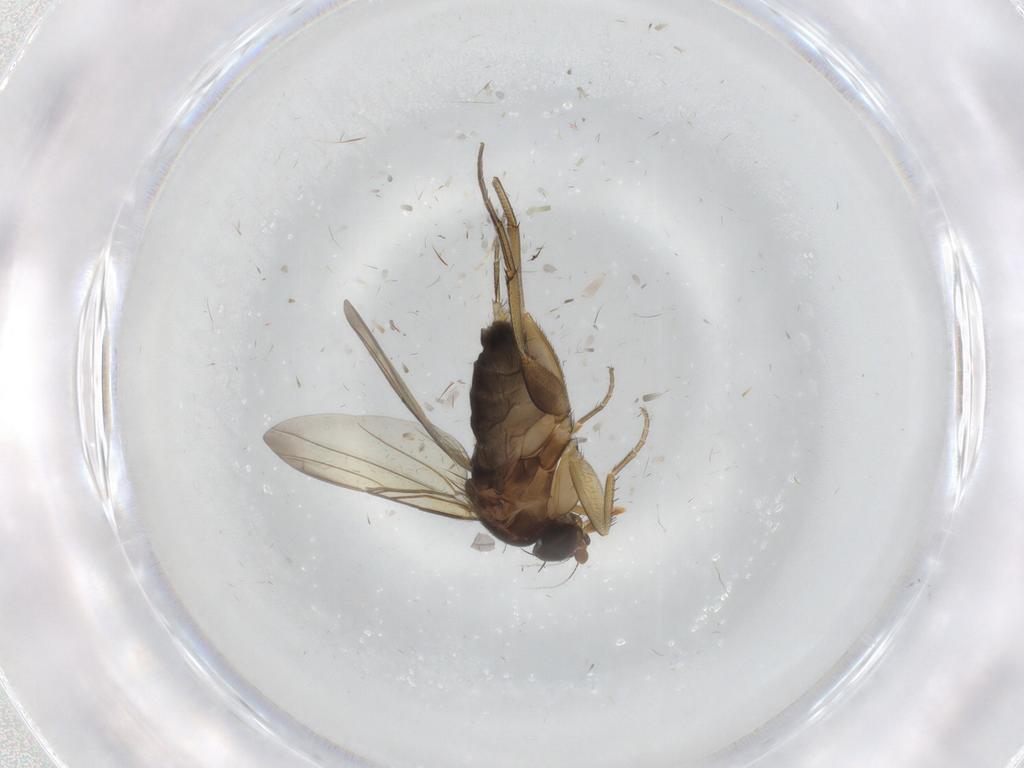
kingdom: Animalia
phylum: Arthropoda
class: Insecta
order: Diptera
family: Phoridae
